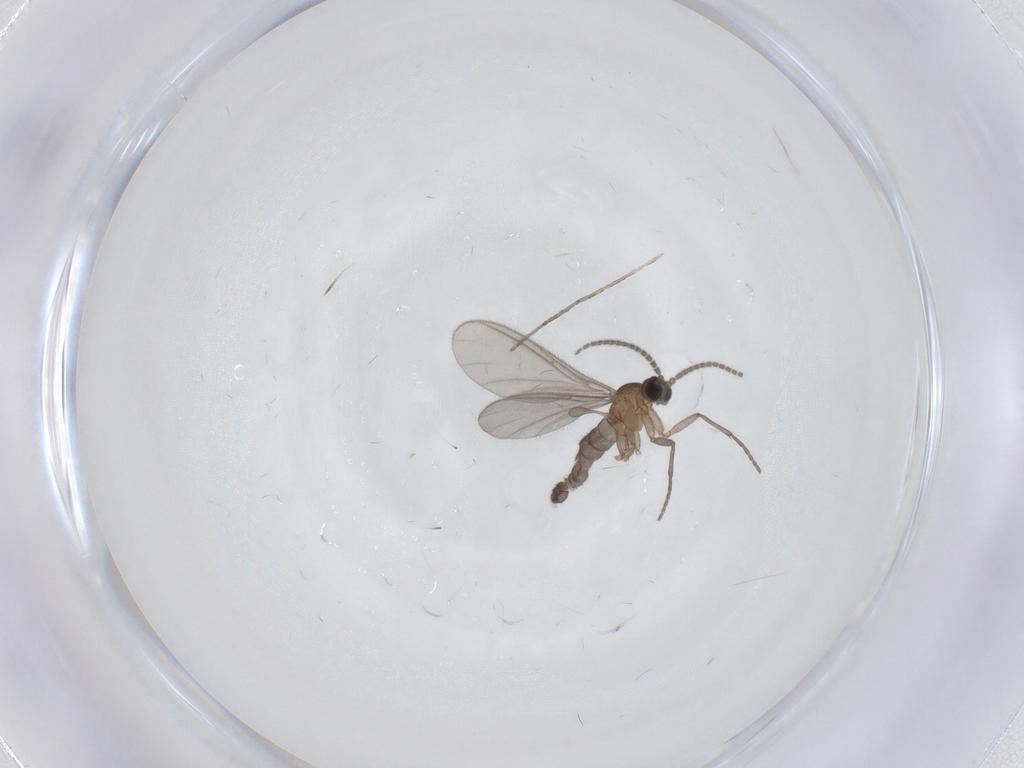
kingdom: Animalia
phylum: Arthropoda
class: Insecta
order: Diptera
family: Sciaridae
